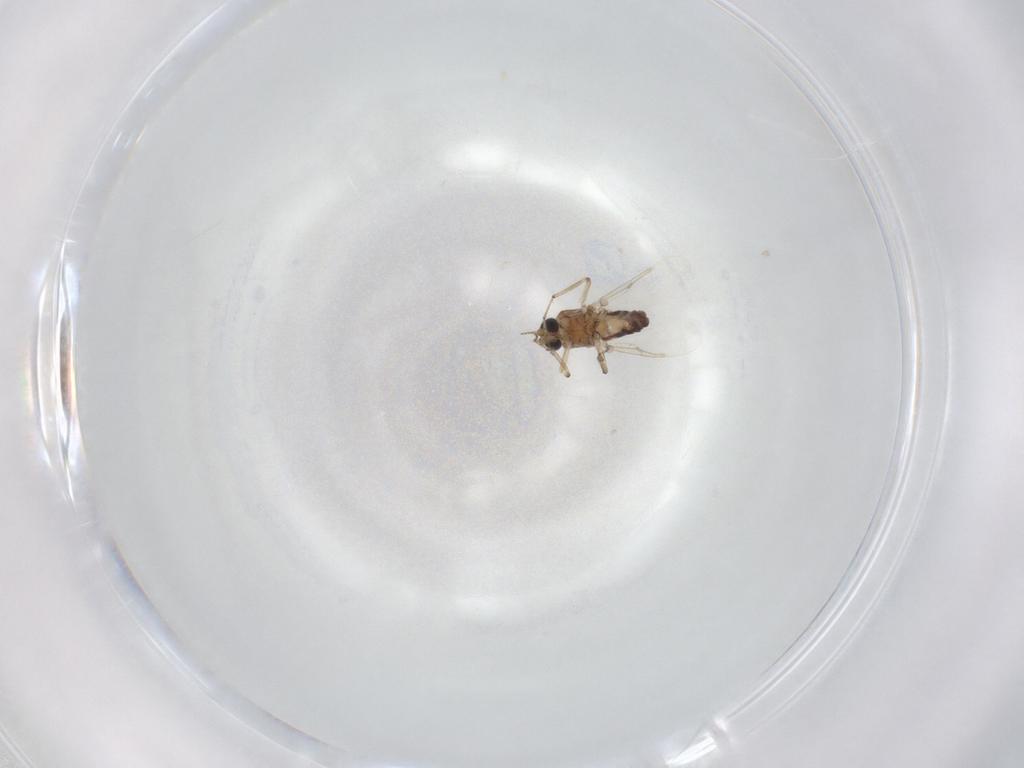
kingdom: Animalia
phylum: Arthropoda
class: Insecta
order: Diptera
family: Ceratopogonidae
